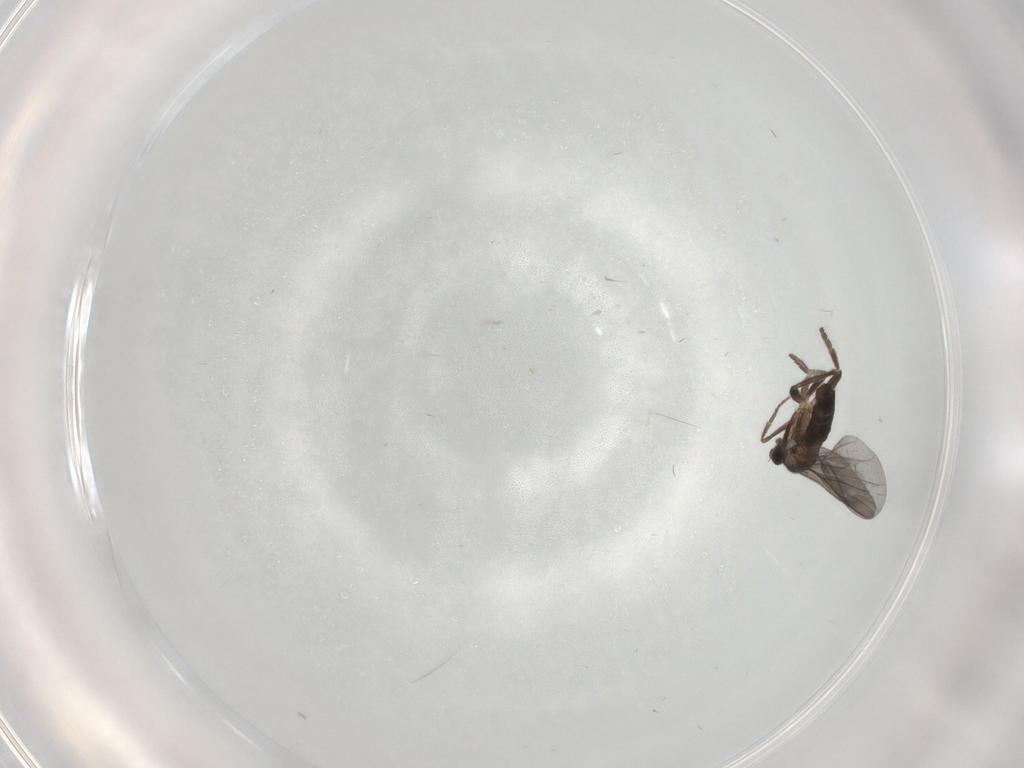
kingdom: Animalia
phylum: Arthropoda
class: Insecta
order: Diptera
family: Phoridae
